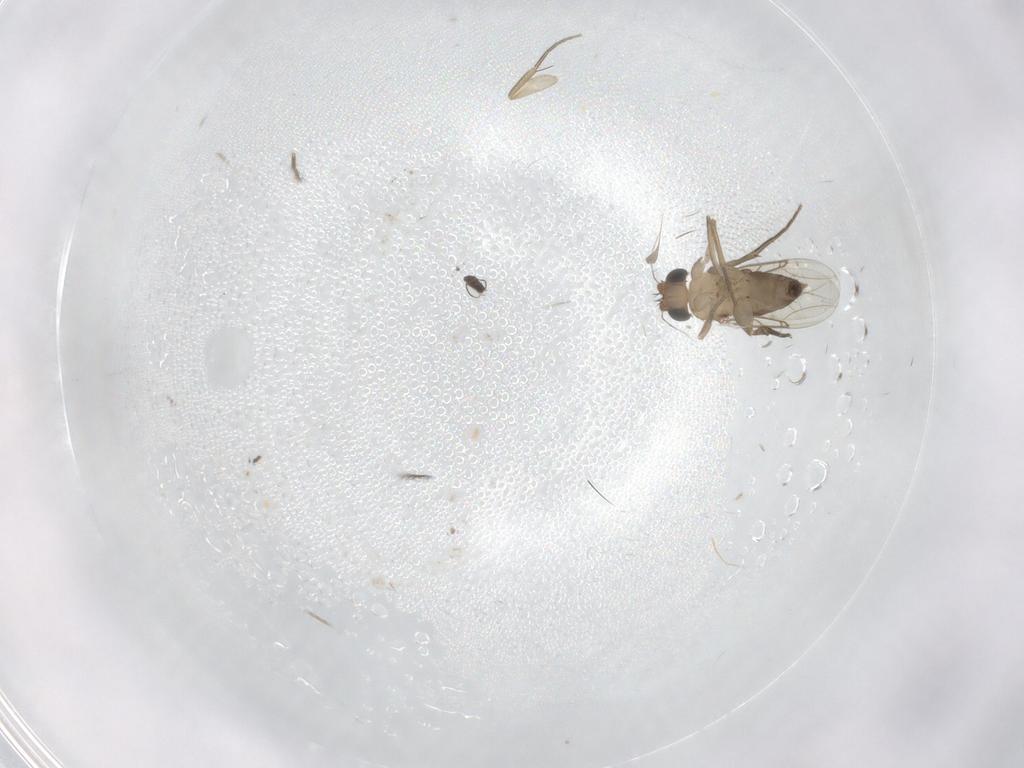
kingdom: Animalia
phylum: Arthropoda
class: Insecta
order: Diptera
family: Phoridae
